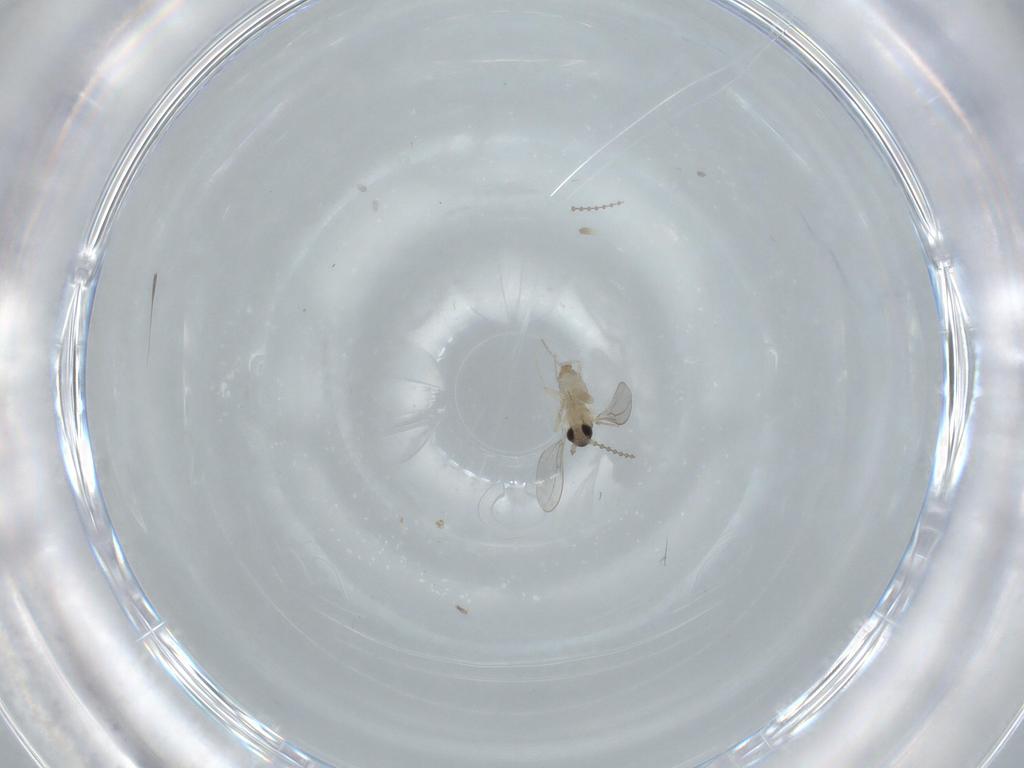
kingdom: Animalia
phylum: Arthropoda
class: Insecta
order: Diptera
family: Cecidomyiidae
